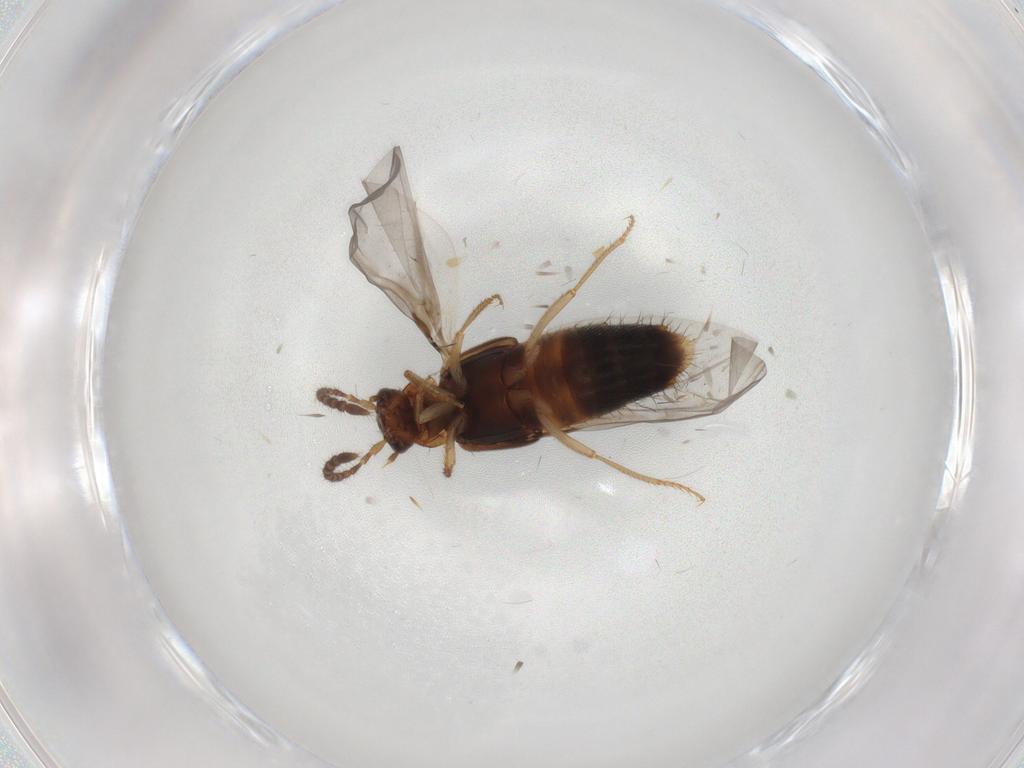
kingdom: Animalia
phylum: Arthropoda
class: Insecta
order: Coleoptera
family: Staphylinidae
